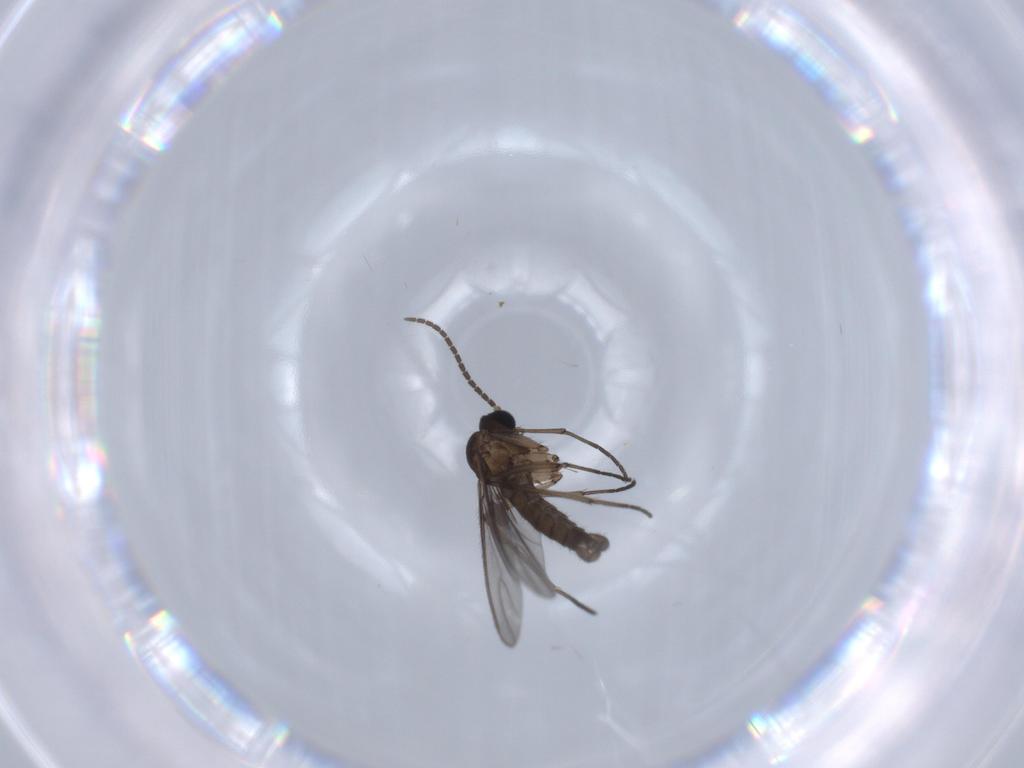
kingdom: Animalia
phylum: Arthropoda
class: Insecta
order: Diptera
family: Sciaridae
